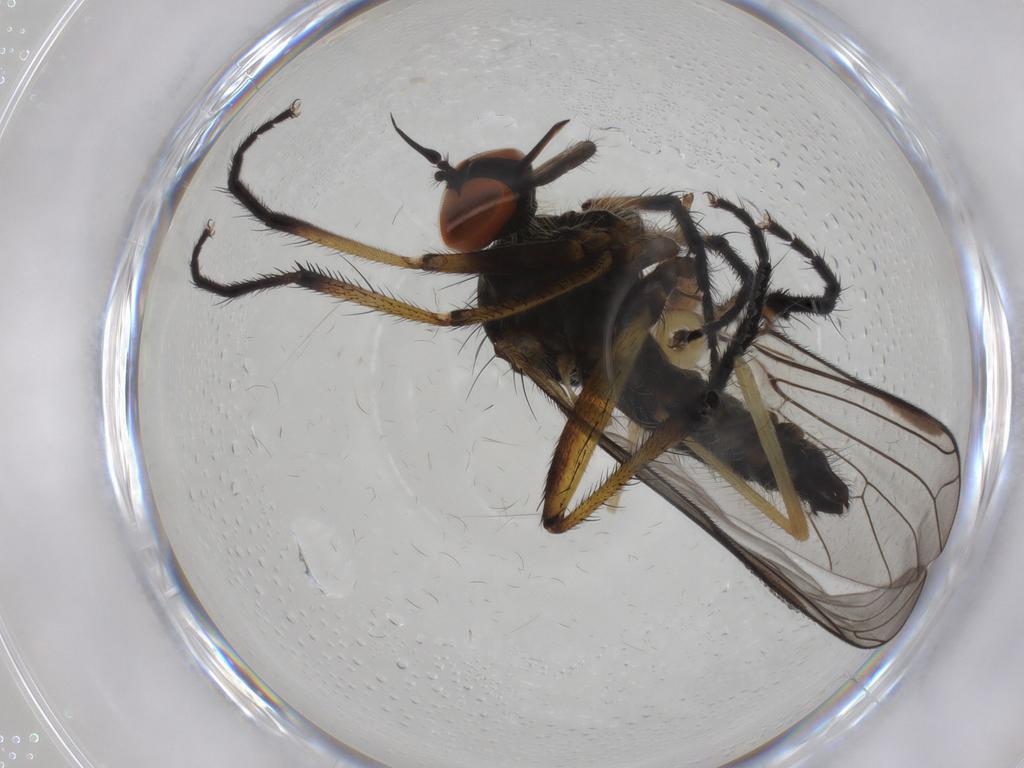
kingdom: Animalia
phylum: Arthropoda
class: Insecta
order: Diptera
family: Empididae
